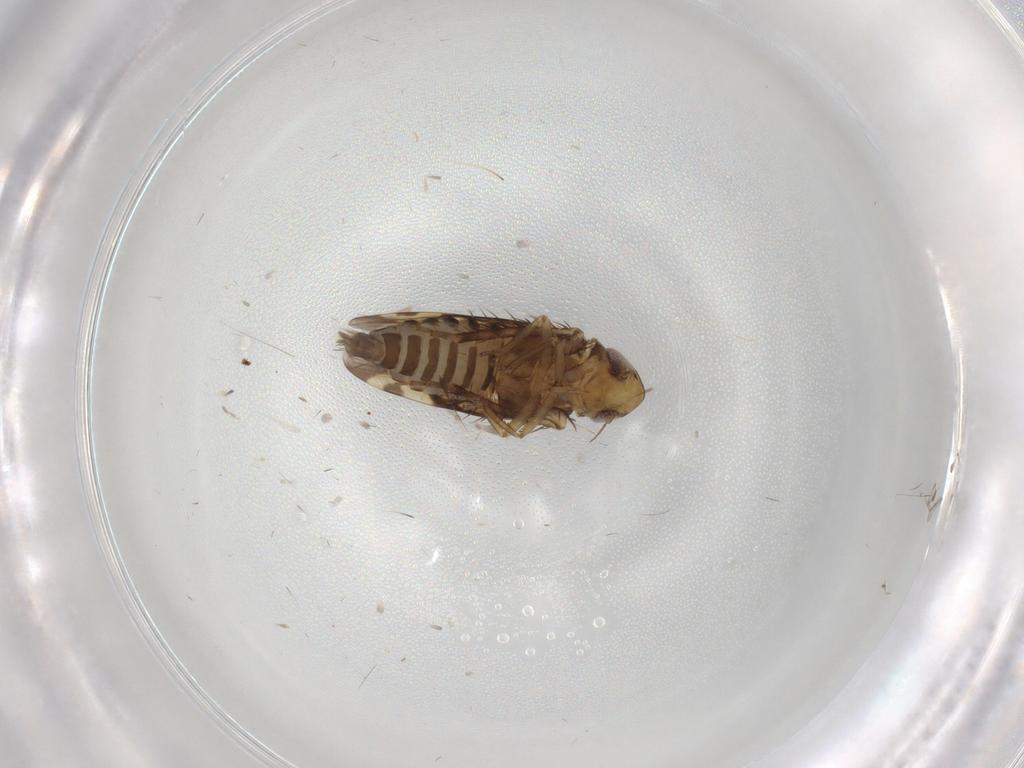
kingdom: Animalia
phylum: Arthropoda
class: Insecta
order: Hemiptera
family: Cicadellidae
